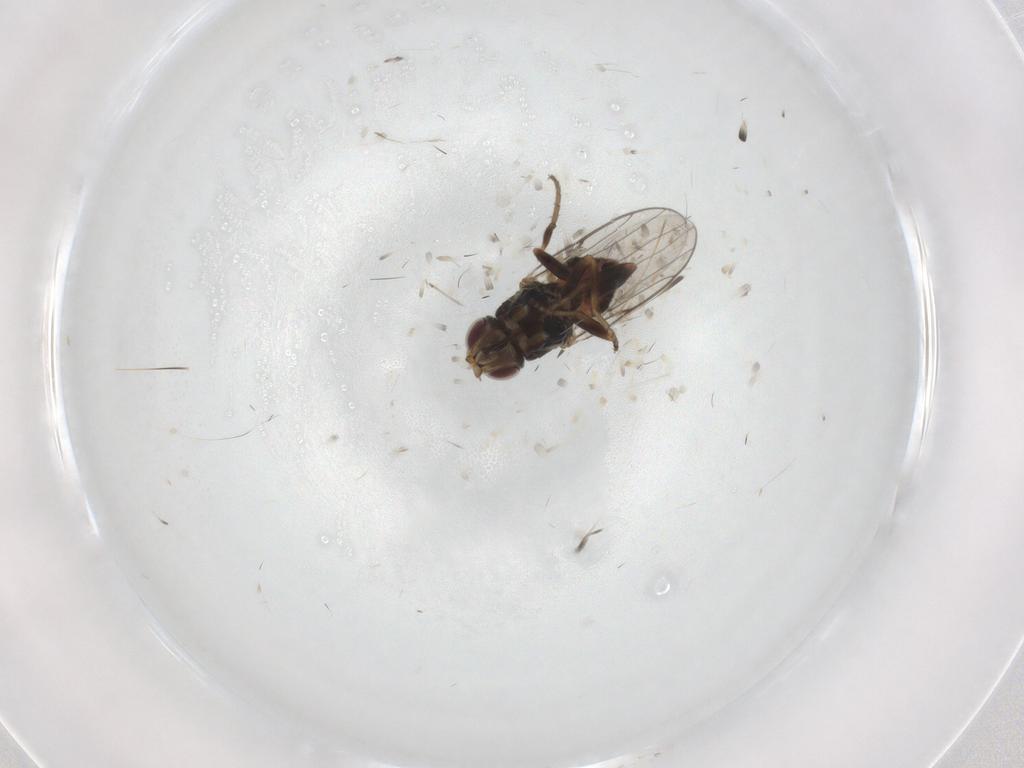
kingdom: Animalia
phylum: Arthropoda
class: Insecta
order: Diptera
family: Chloropidae
